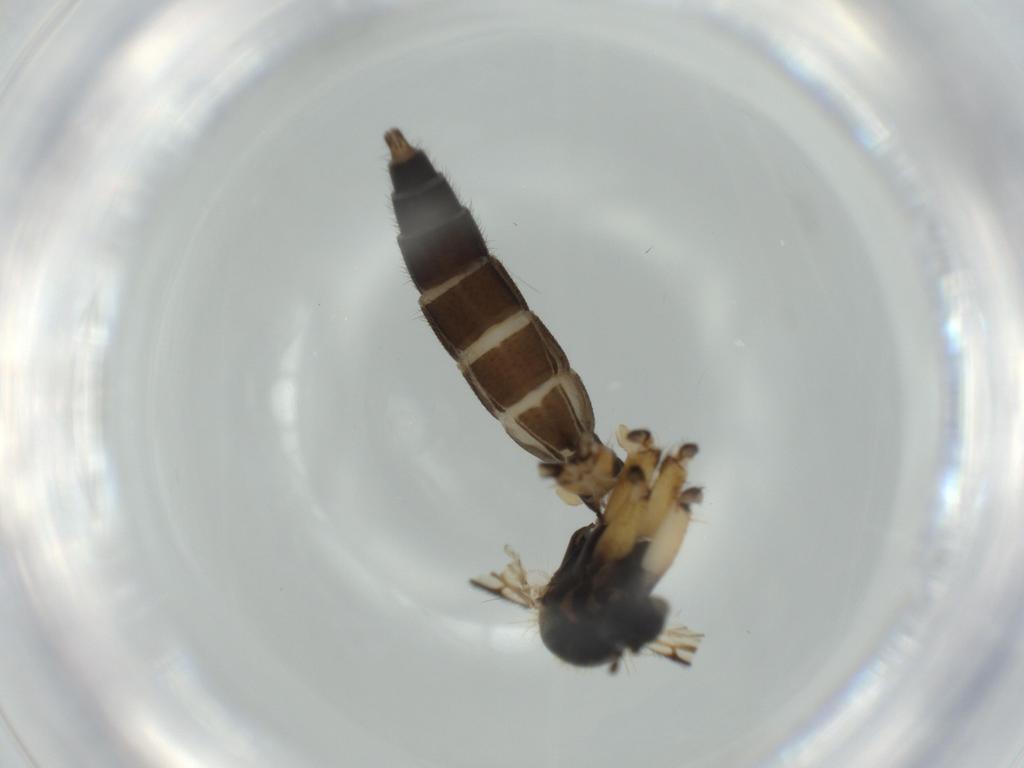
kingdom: Animalia
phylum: Arthropoda
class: Insecta
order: Diptera
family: Mycetophilidae
